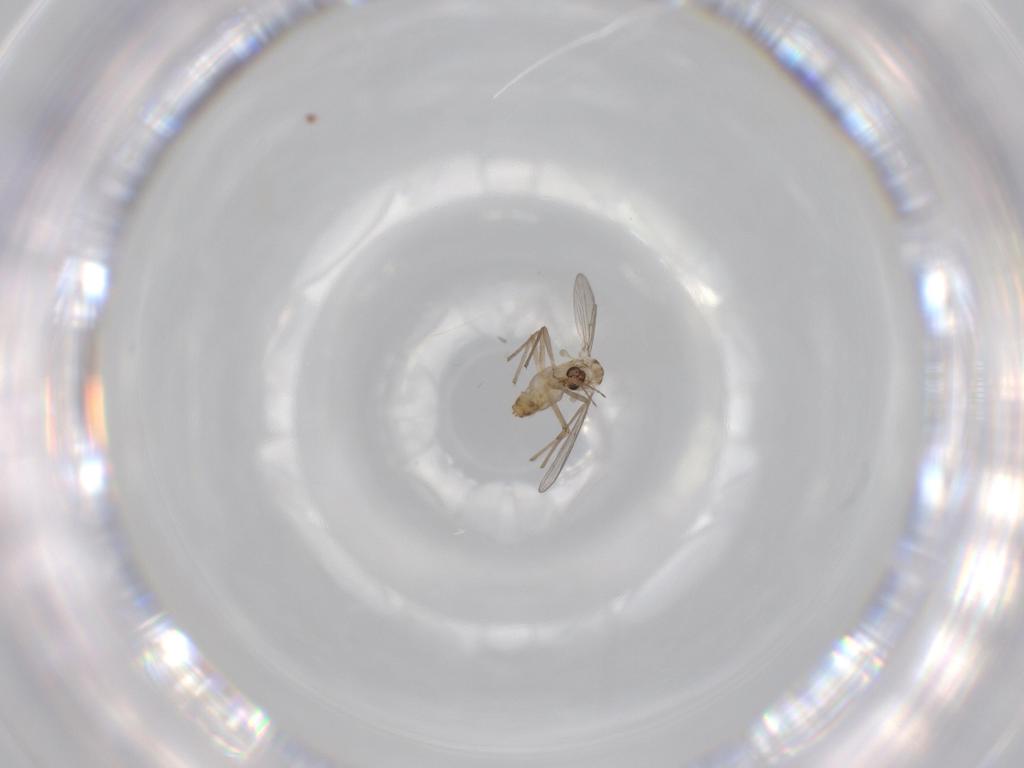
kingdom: Animalia
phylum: Arthropoda
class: Insecta
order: Diptera
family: Chironomidae
